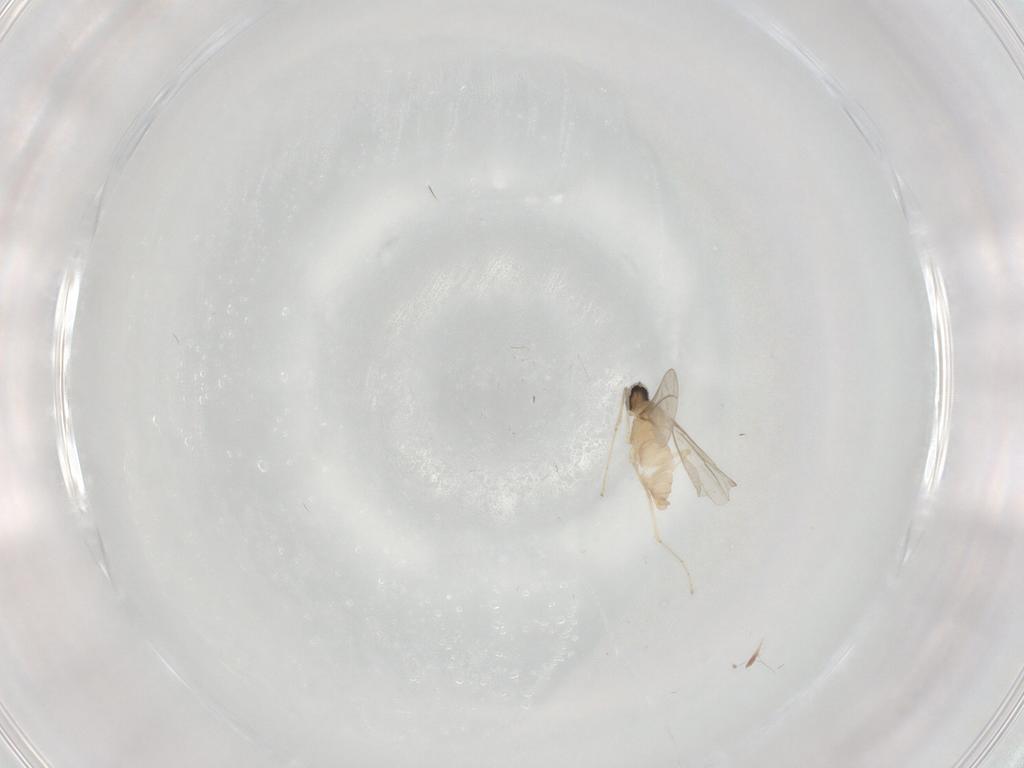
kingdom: Animalia
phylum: Arthropoda
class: Insecta
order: Diptera
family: Cecidomyiidae
